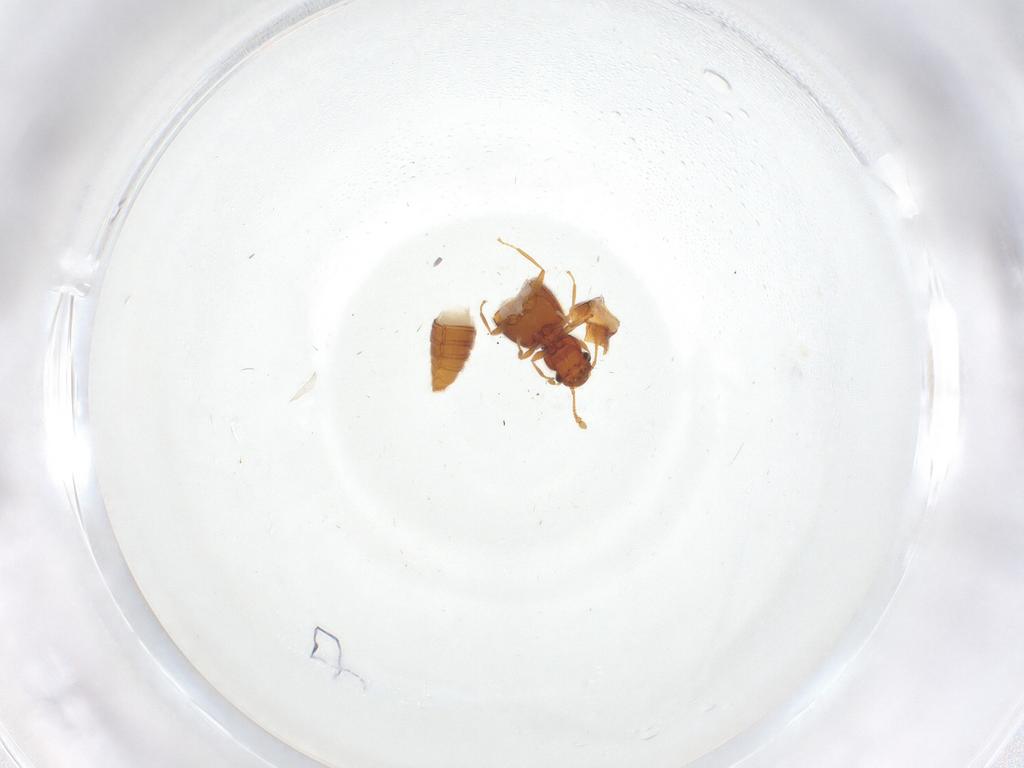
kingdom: Animalia
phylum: Arthropoda
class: Insecta
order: Coleoptera
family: Staphylinidae
